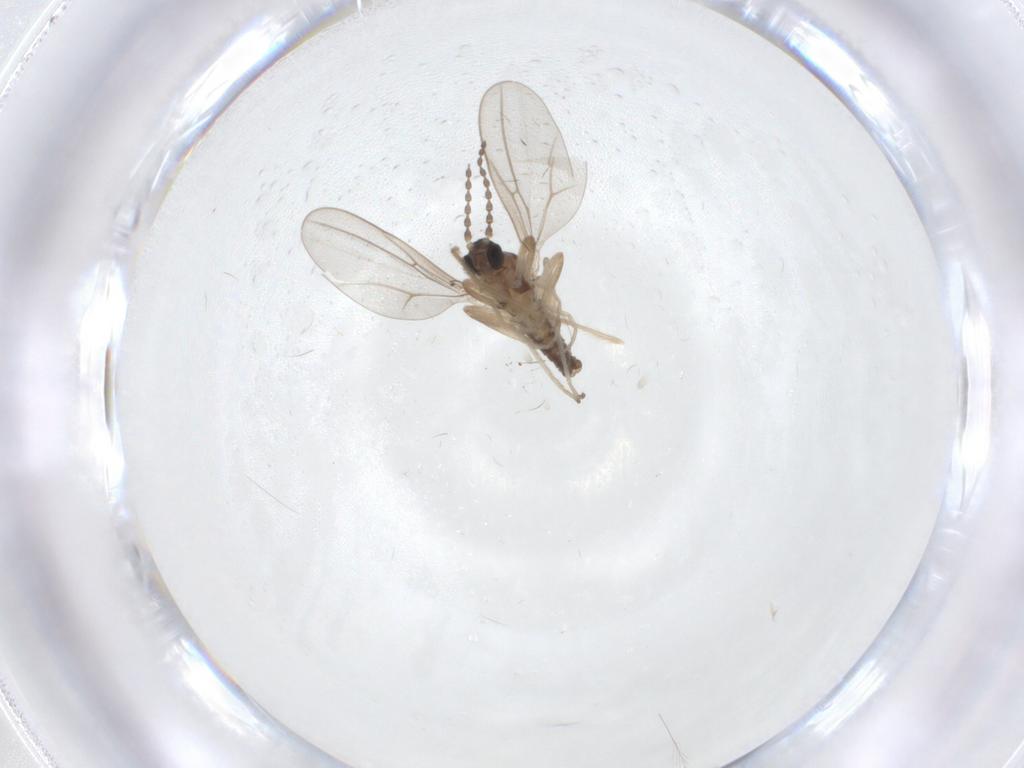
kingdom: Animalia
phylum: Arthropoda
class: Insecta
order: Diptera
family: Cecidomyiidae
